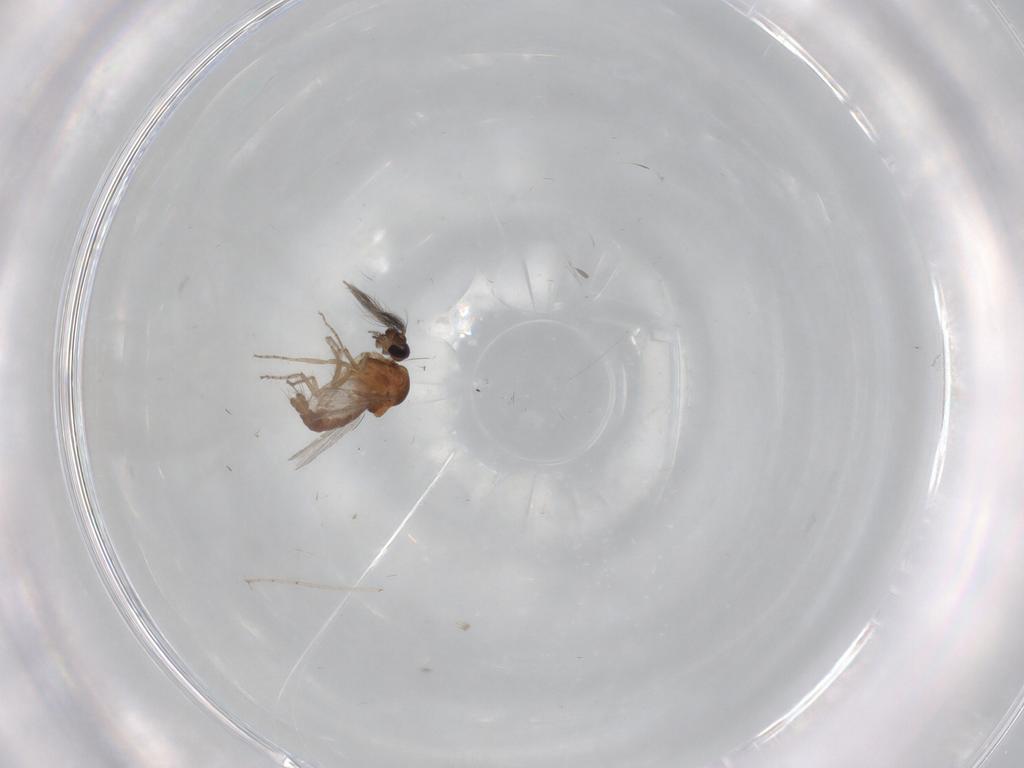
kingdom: Animalia
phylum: Arthropoda
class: Insecta
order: Diptera
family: Ceratopogonidae
